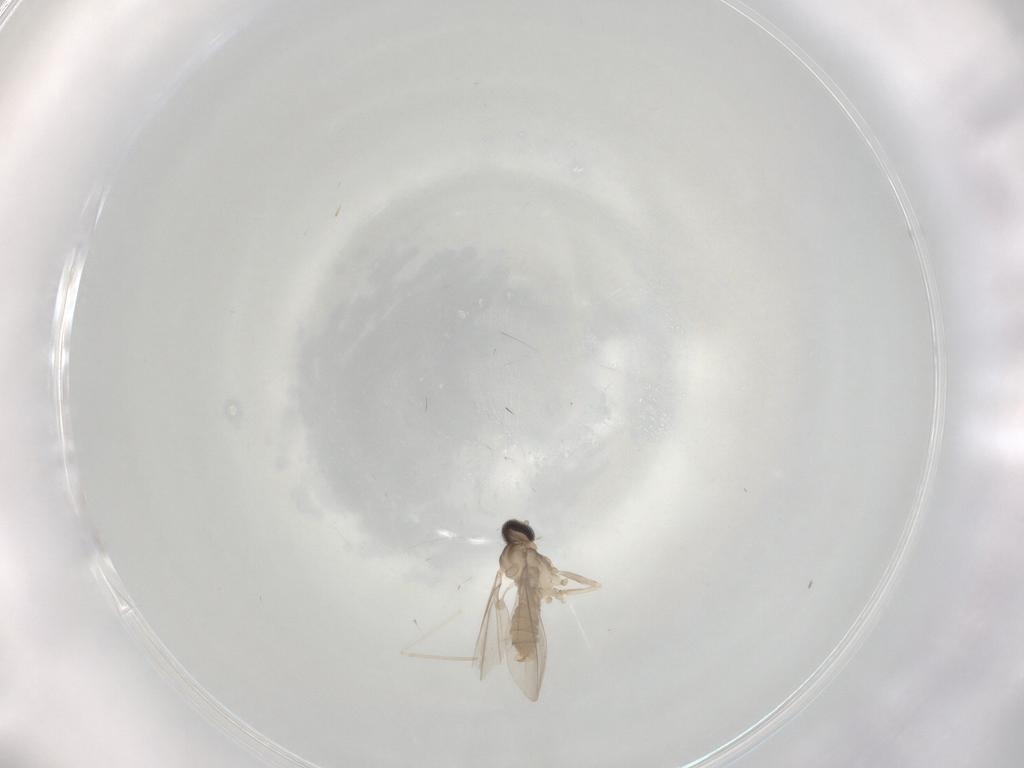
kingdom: Animalia
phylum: Arthropoda
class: Insecta
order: Diptera
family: Cecidomyiidae
